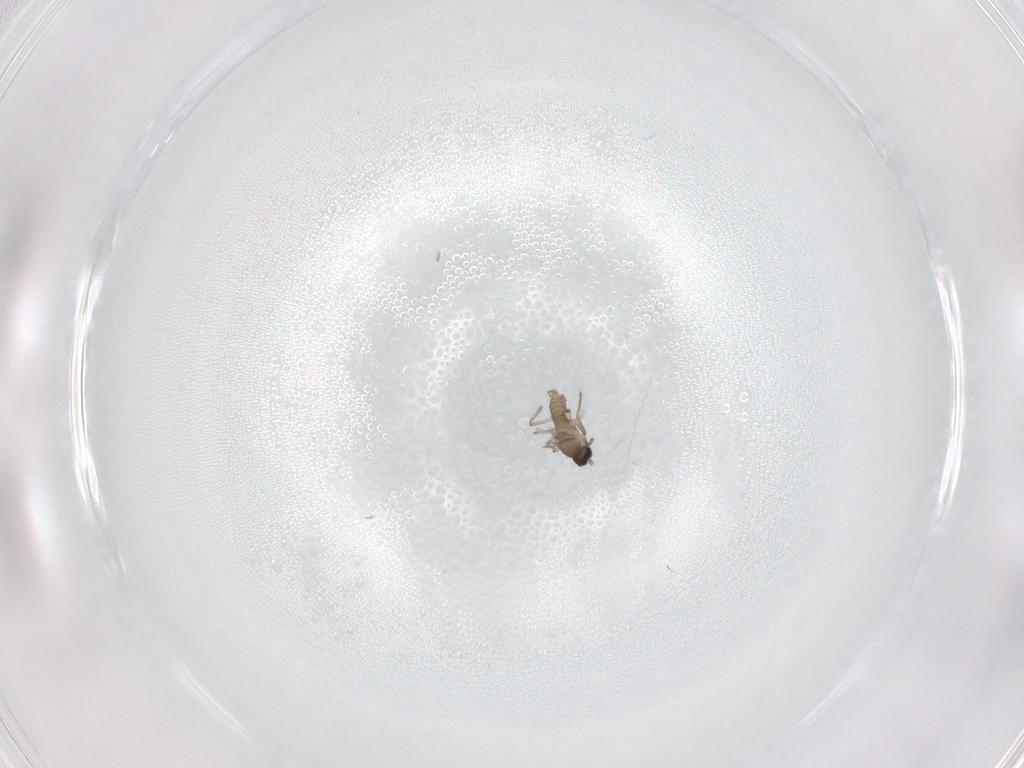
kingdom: Animalia
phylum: Arthropoda
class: Insecta
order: Diptera
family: Cecidomyiidae
